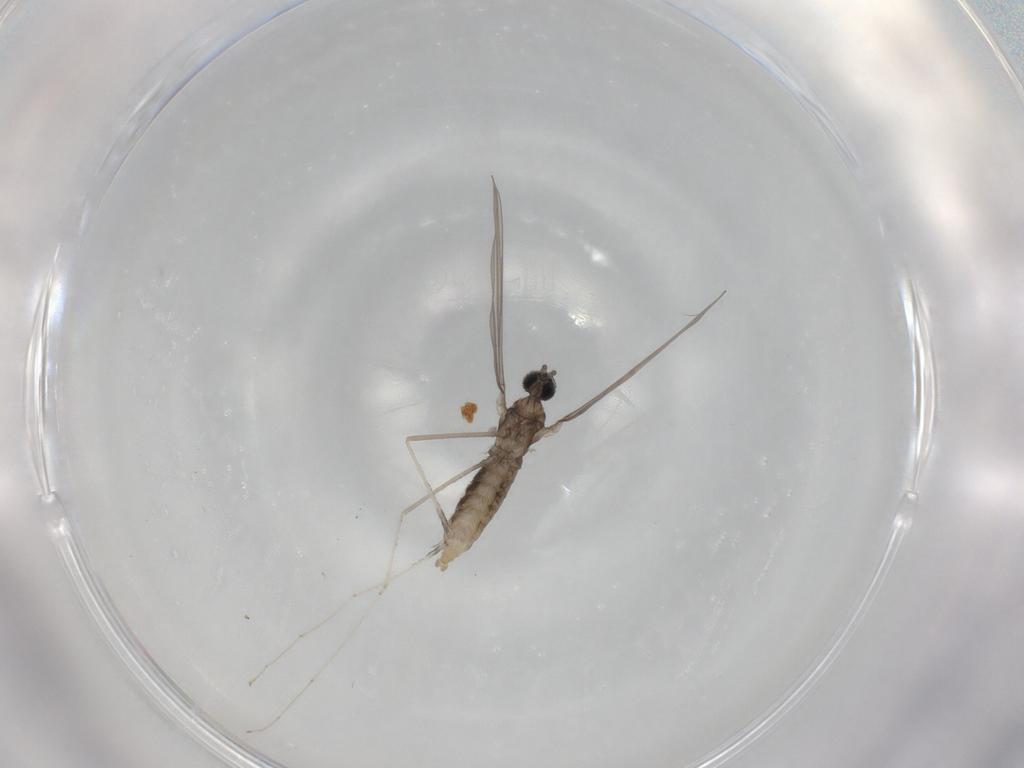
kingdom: Animalia
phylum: Arthropoda
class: Insecta
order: Diptera
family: Cecidomyiidae
